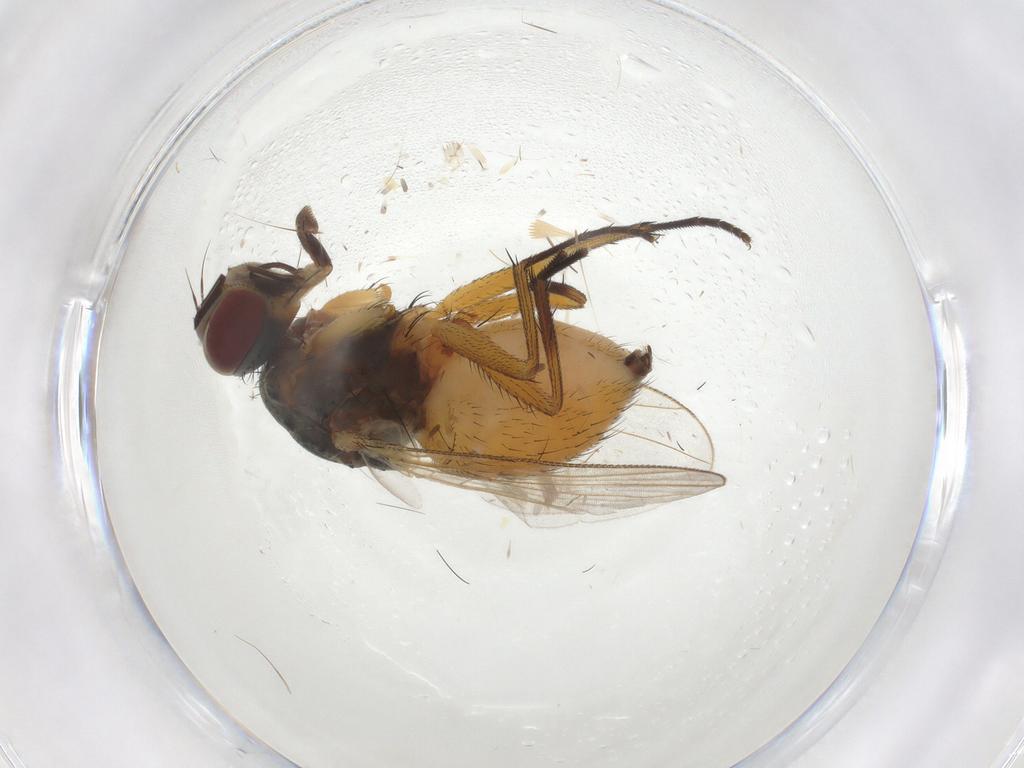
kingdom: Animalia
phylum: Arthropoda
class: Insecta
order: Diptera
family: Muscidae
